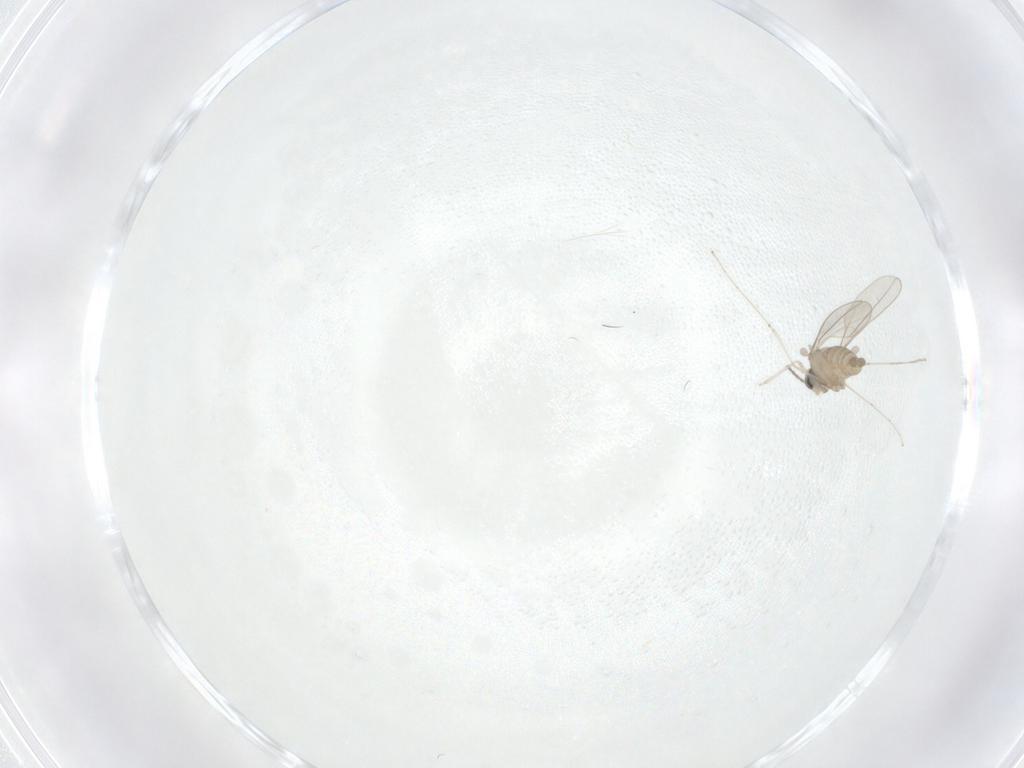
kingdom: Animalia
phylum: Arthropoda
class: Insecta
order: Diptera
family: Cecidomyiidae
